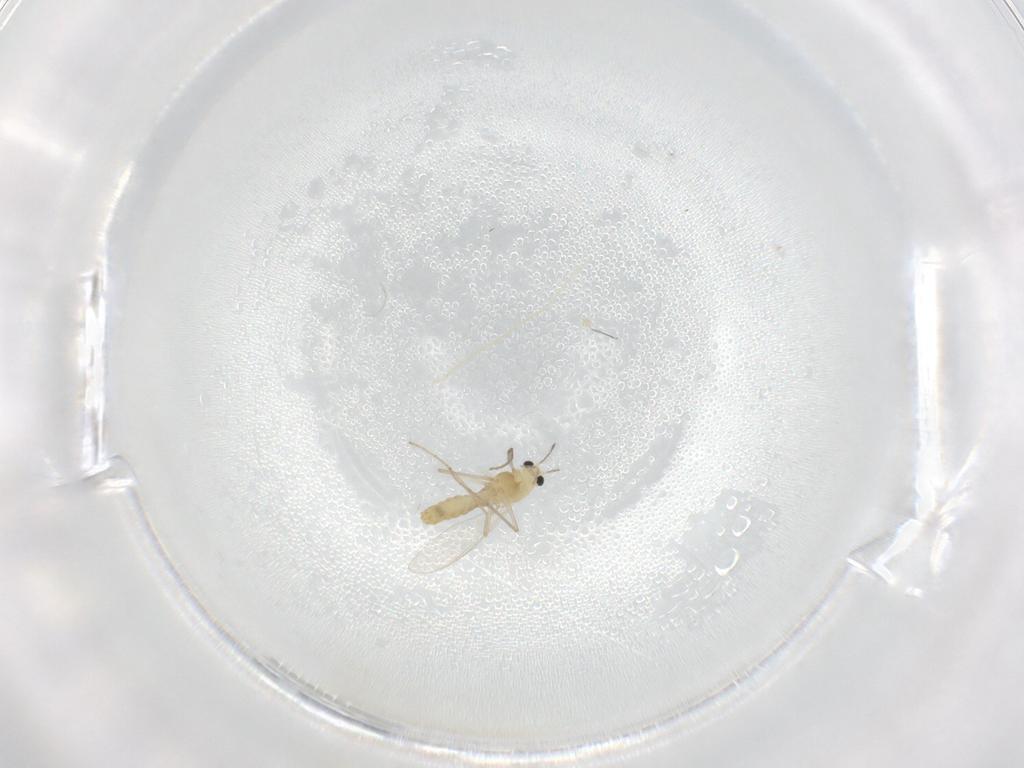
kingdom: Animalia
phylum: Arthropoda
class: Insecta
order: Diptera
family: Chironomidae
